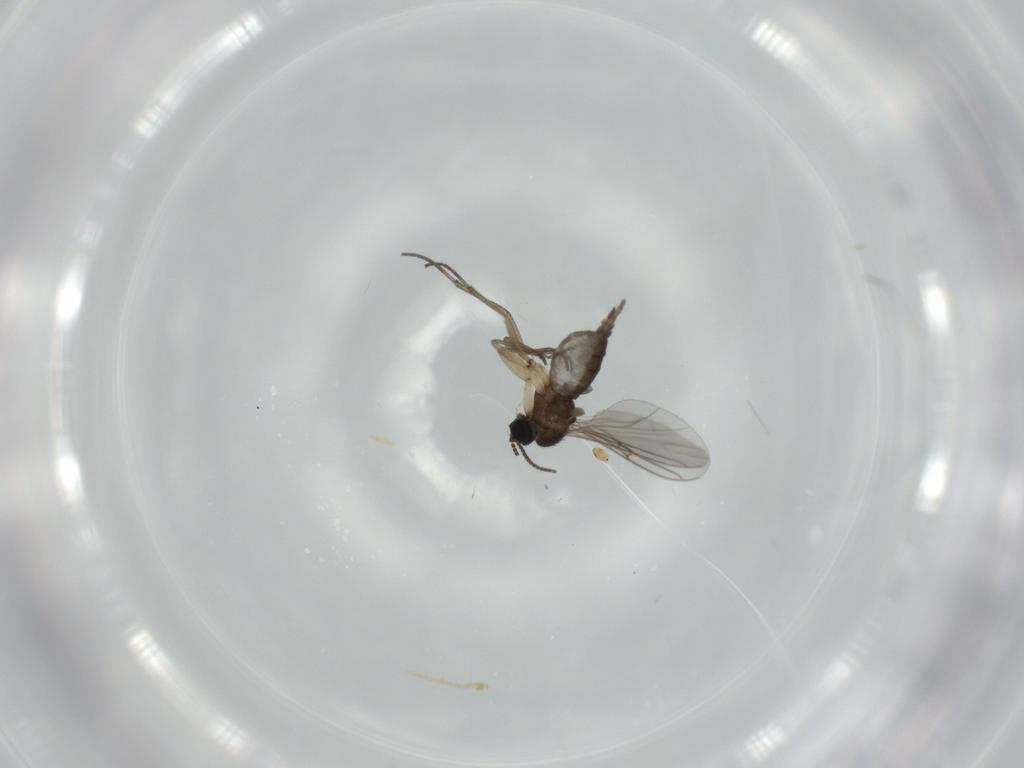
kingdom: Animalia
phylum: Arthropoda
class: Insecta
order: Diptera
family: Sciaridae
